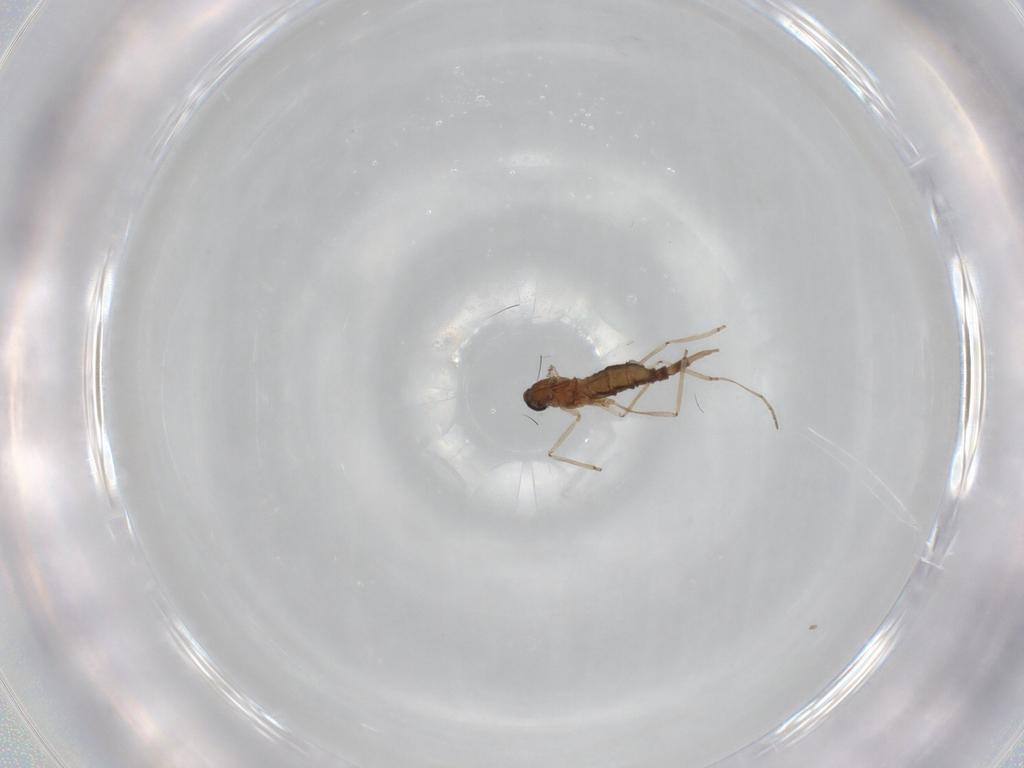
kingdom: Animalia
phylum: Arthropoda
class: Insecta
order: Diptera
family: Cecidomyiidae
